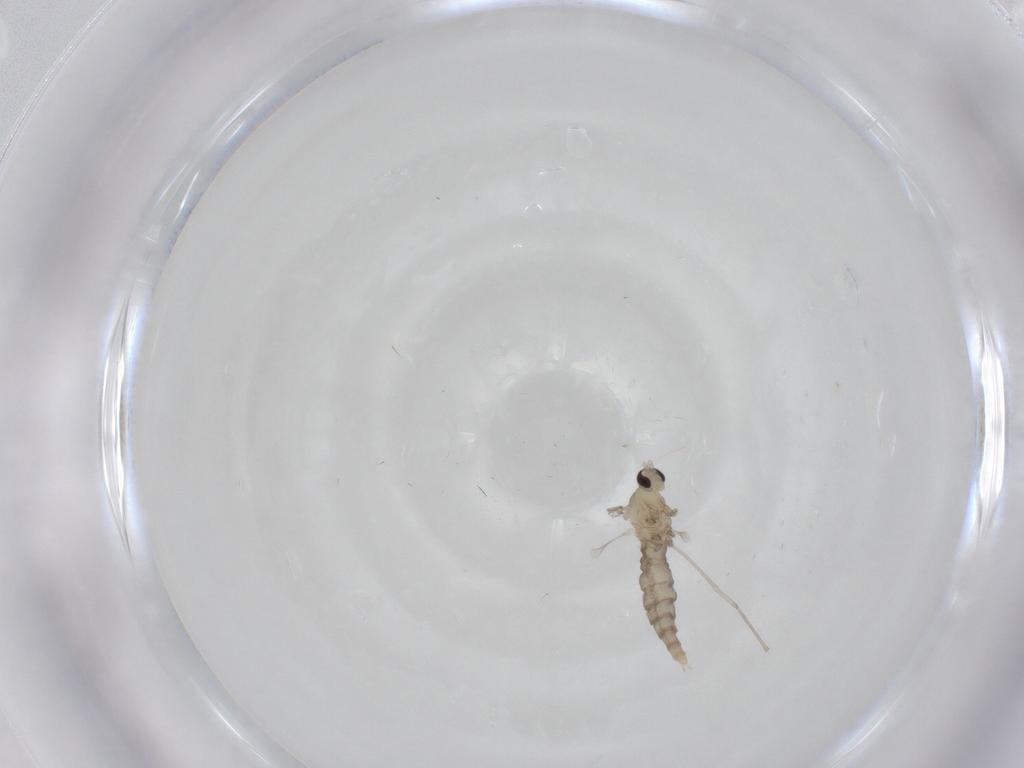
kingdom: Animalia
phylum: Arthropoda
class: Insecta
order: Diptera
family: Cecidomyiidae
